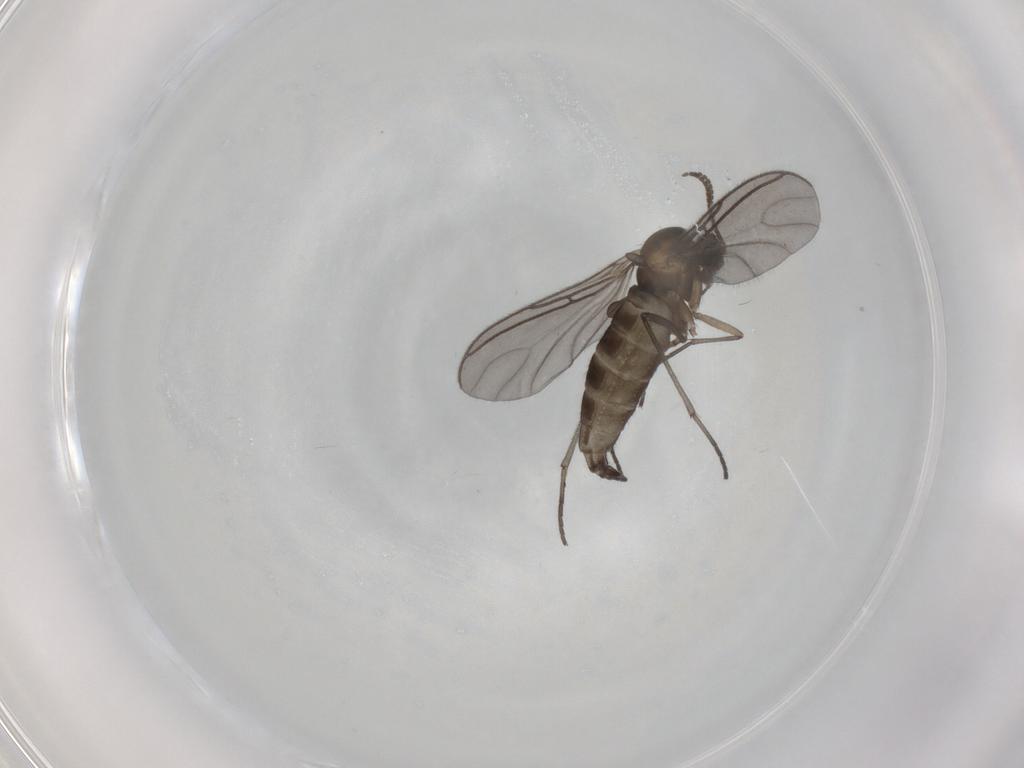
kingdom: Animalia
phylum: Arthropoda
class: Insecta
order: Diptera
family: Sciaridae
